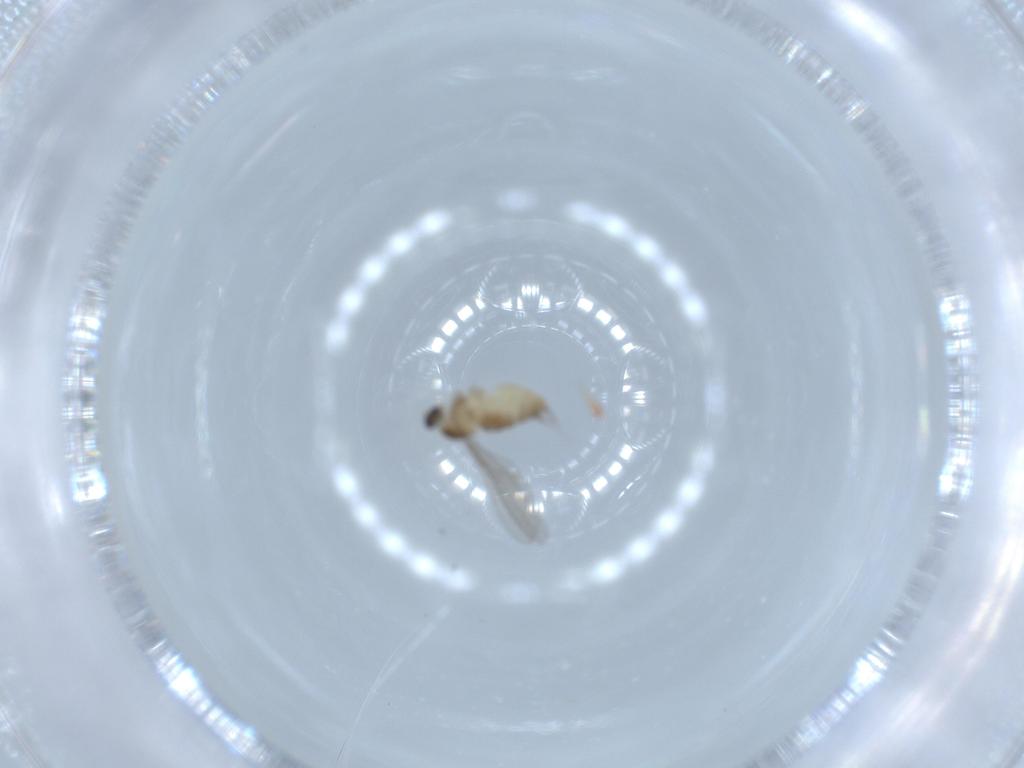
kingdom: Animalia
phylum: Arthropoda
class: Insecta
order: Diptera
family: Cecidomyiidae
